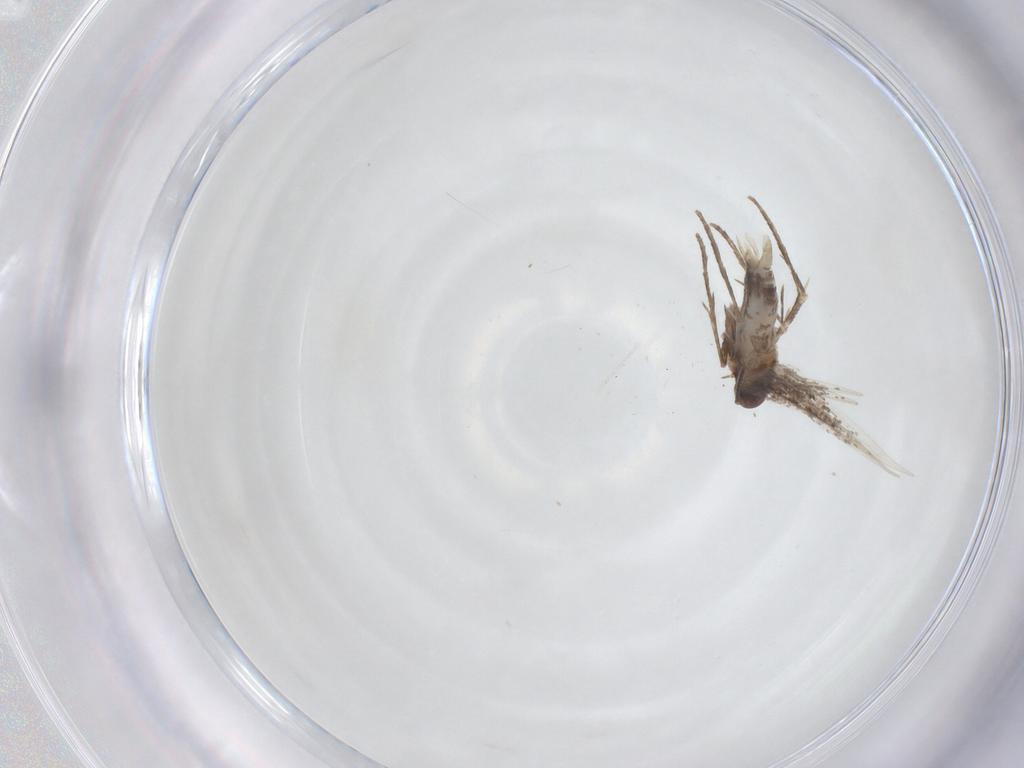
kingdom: Animalia
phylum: Arthropoda
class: Insecta
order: Lepidoptera
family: Gracillariidae
